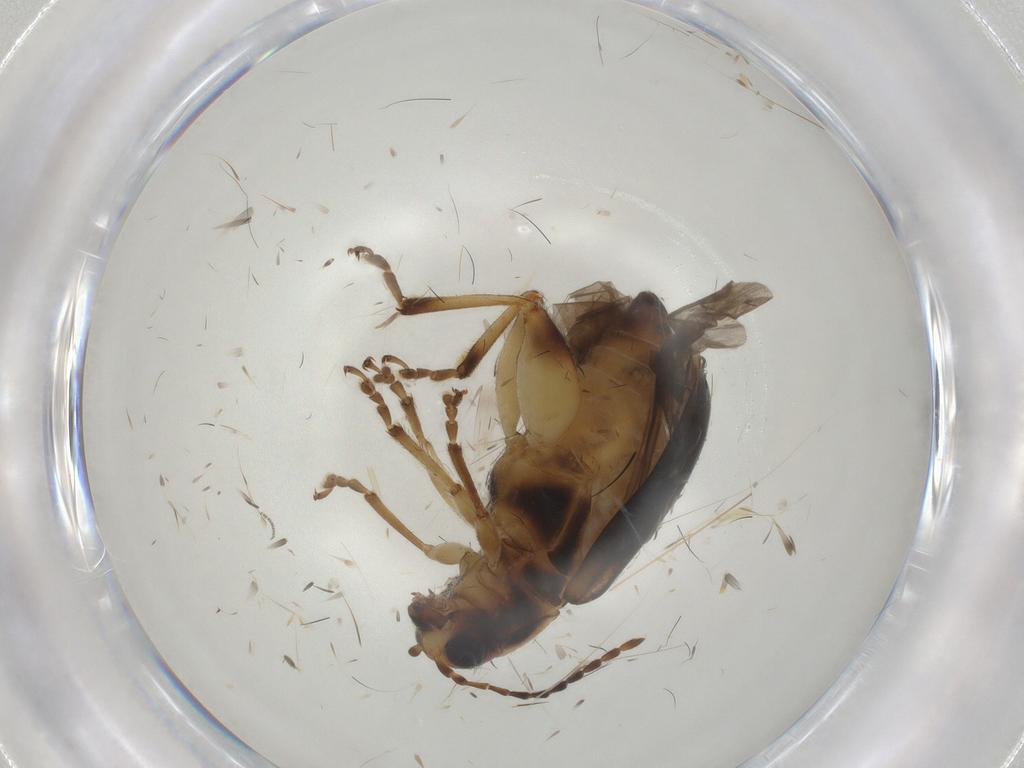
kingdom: Animalia
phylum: Arthropoda
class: Insecta
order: Coleoptera
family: Chrysomelidae
